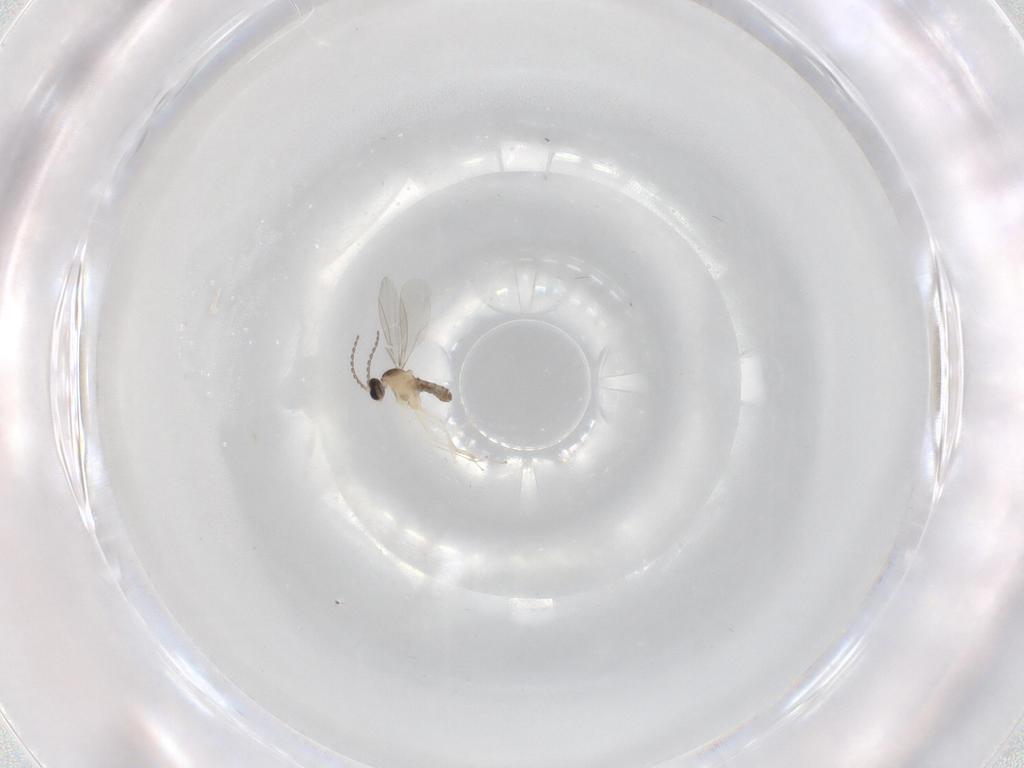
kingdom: Animalia
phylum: Arthropoda
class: Insecta
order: Diptera
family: Cecidomyiidae
